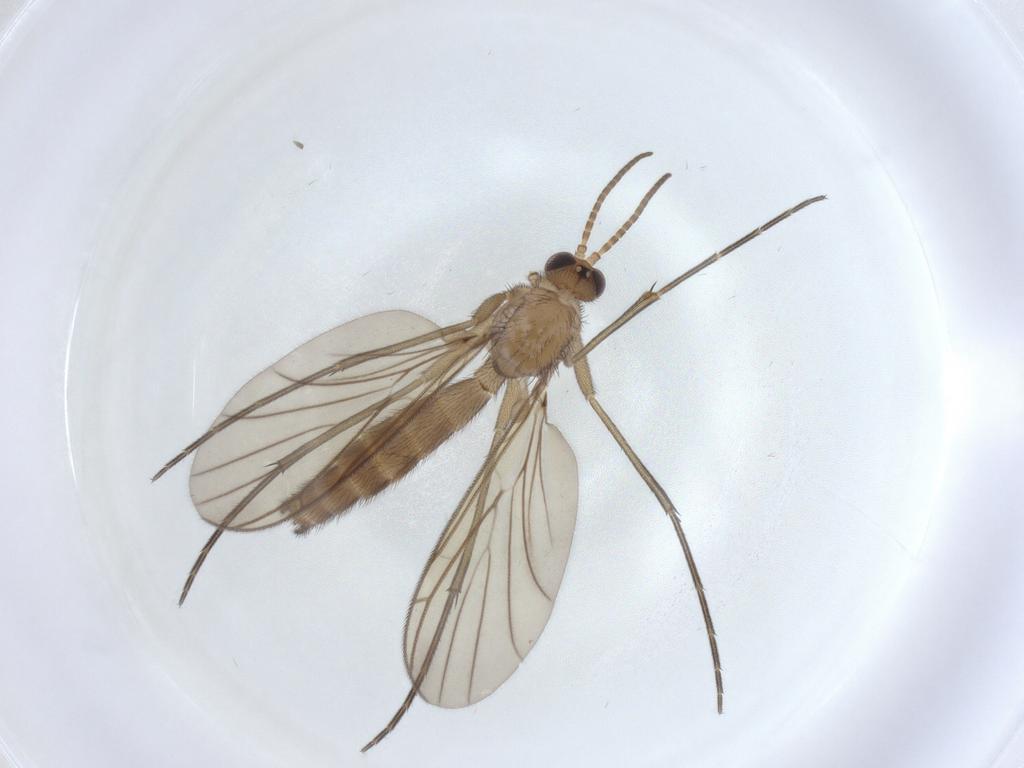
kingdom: Animalia
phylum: Arthropoda
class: Insecta
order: Diptera
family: Keroplatidae
